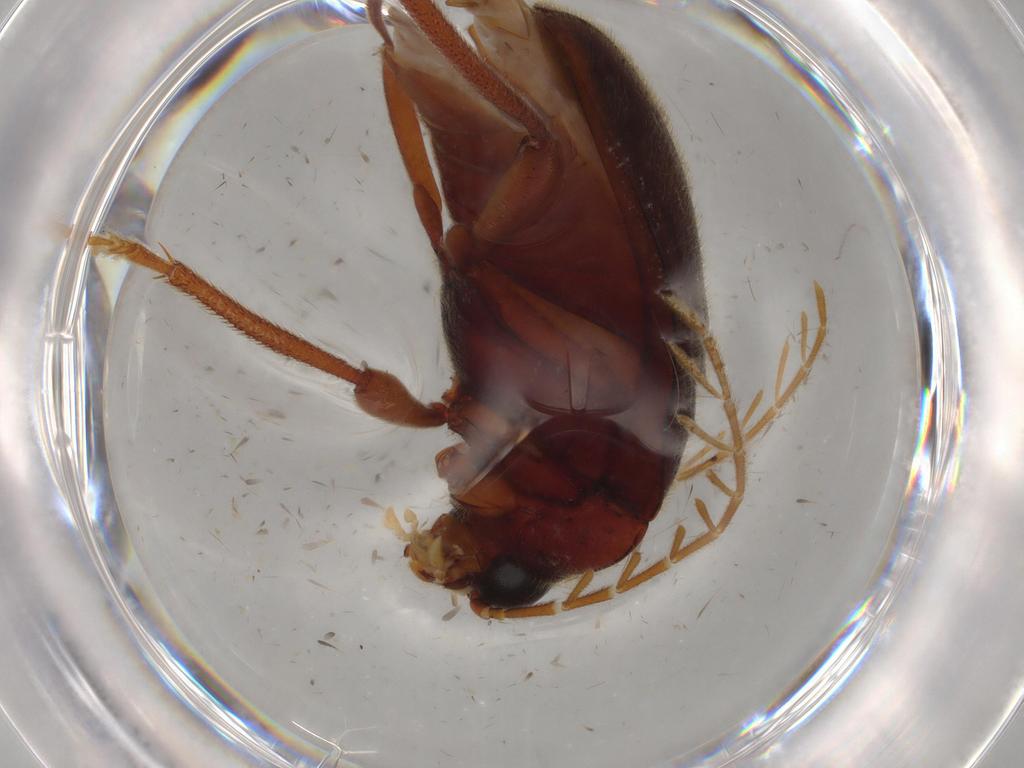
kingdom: Animalia
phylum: Arthropoda
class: Insecta
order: Coleoptera
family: Ptilodactylidae
